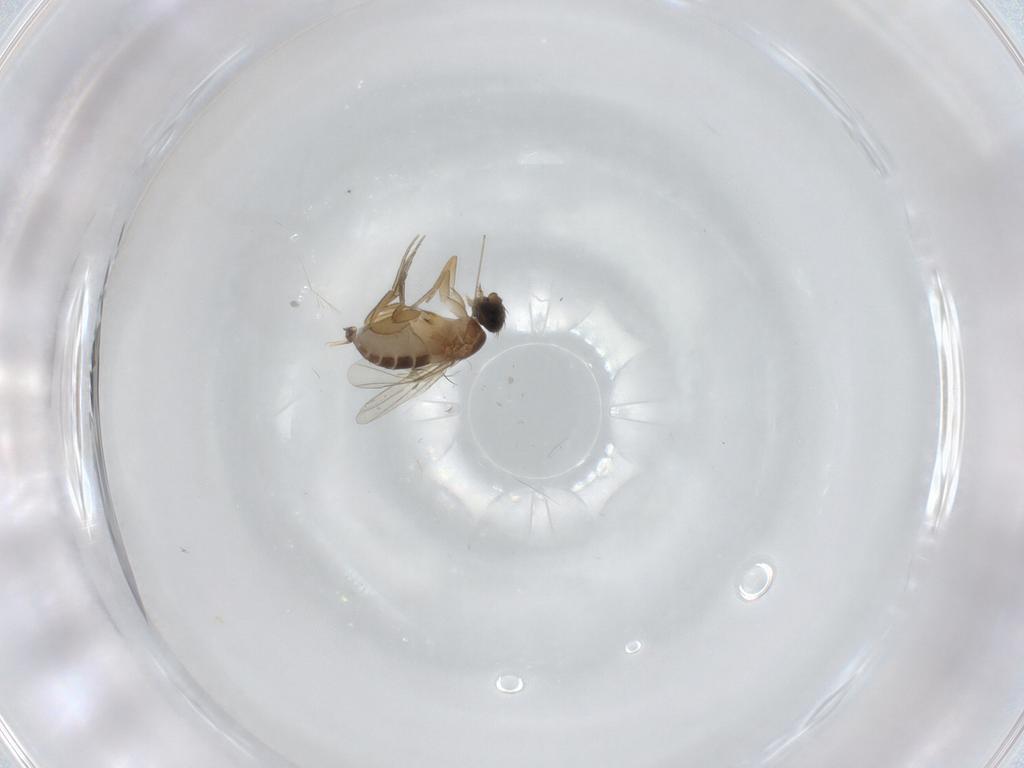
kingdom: Animalia
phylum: Arthropoda
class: Insecta
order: Diptera
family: Chironomidae
